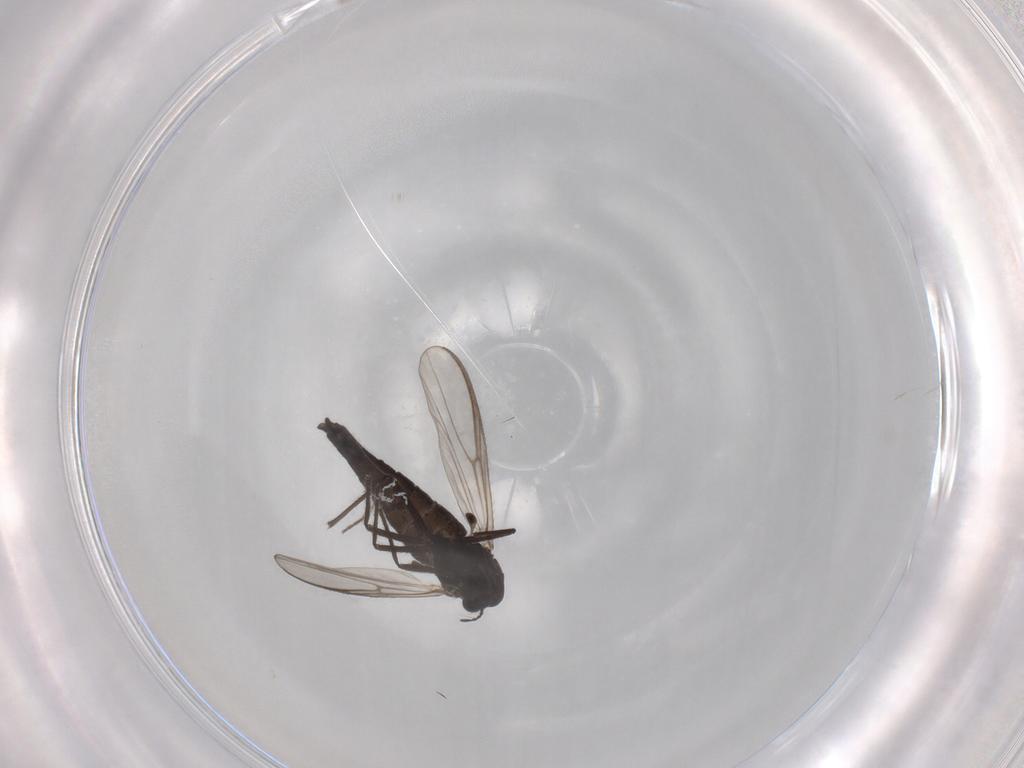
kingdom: Animalia
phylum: Arthropoda
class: Insecta
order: Diptera
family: Chironomidae
